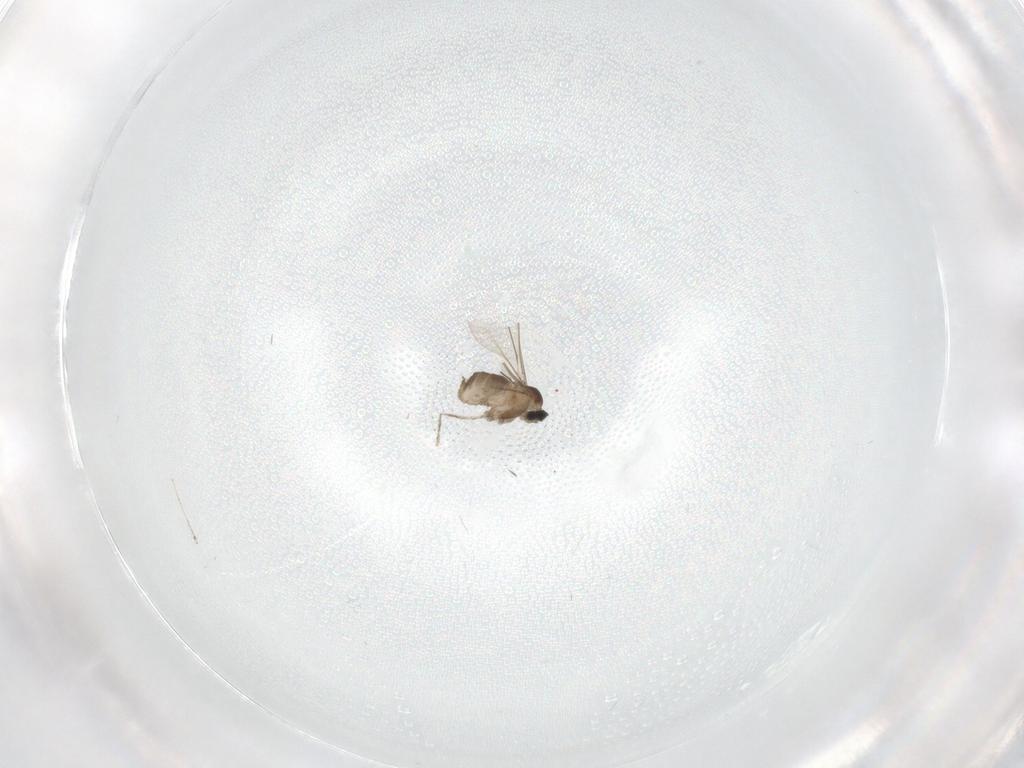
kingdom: Animalia
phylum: Arthropoda
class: Insecta
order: Diptera
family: Cecidomyiidae
